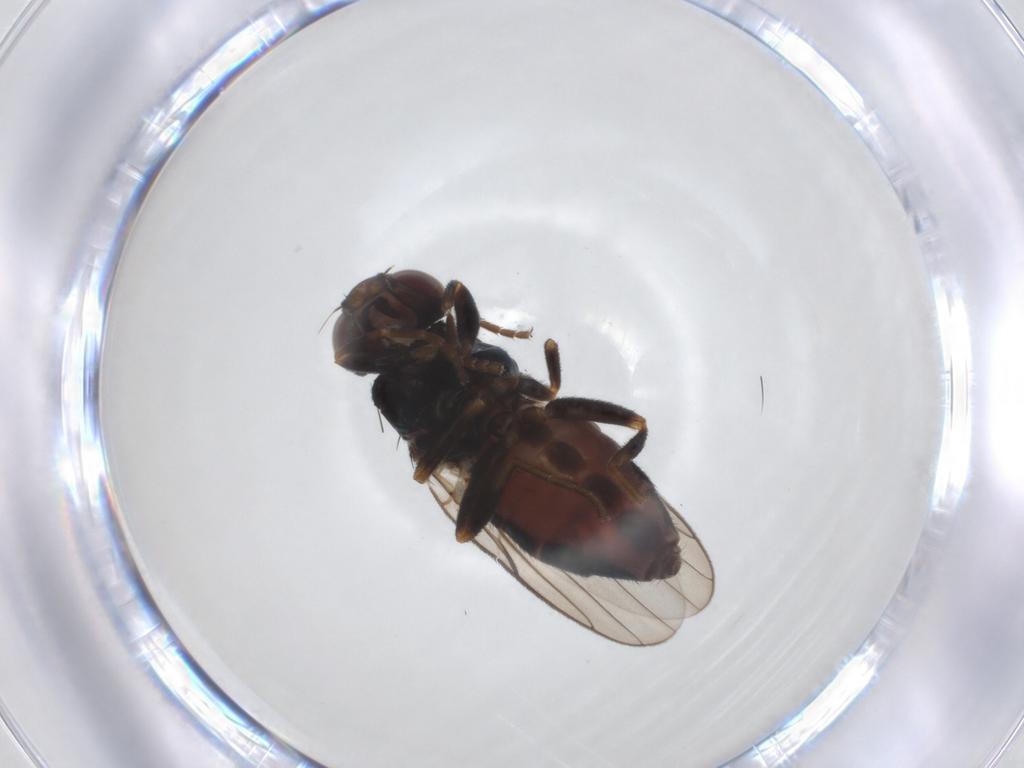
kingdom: Animalia
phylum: Arthropoda
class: Insecta
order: Diptera
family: Chloropidae
